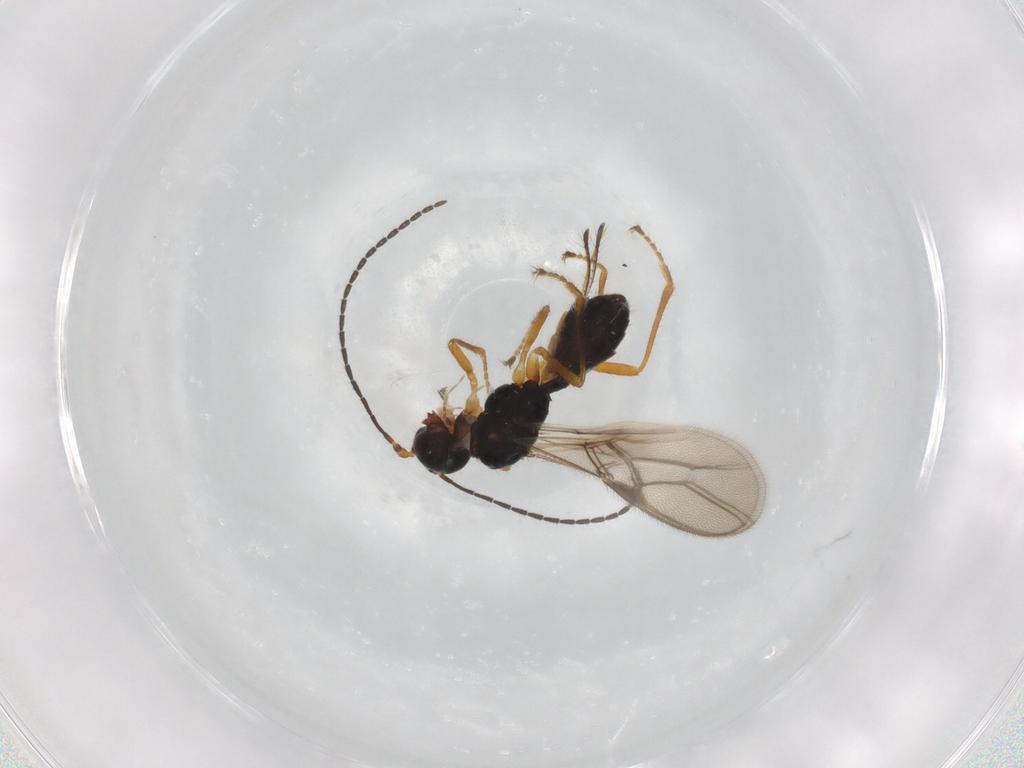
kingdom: Animalia
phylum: Arthropoda
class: Insecta
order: Hymenoptera
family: Braconidae
